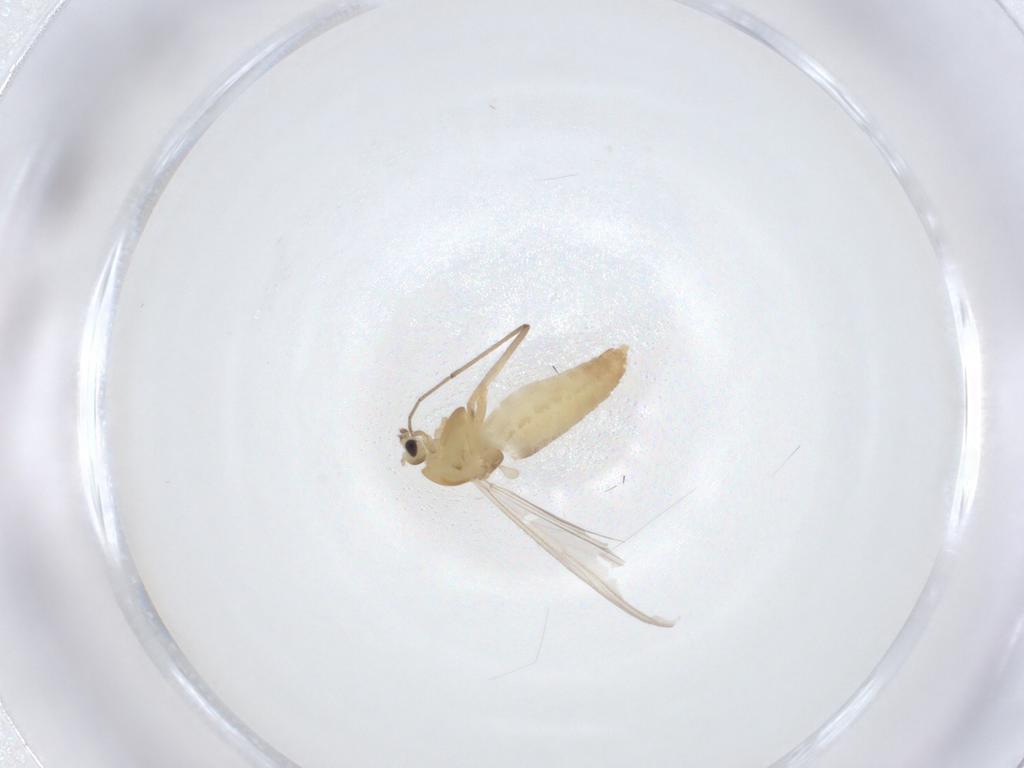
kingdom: Animalia
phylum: Arthropoda
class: Insecta
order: Diptera
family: Chironomidae
